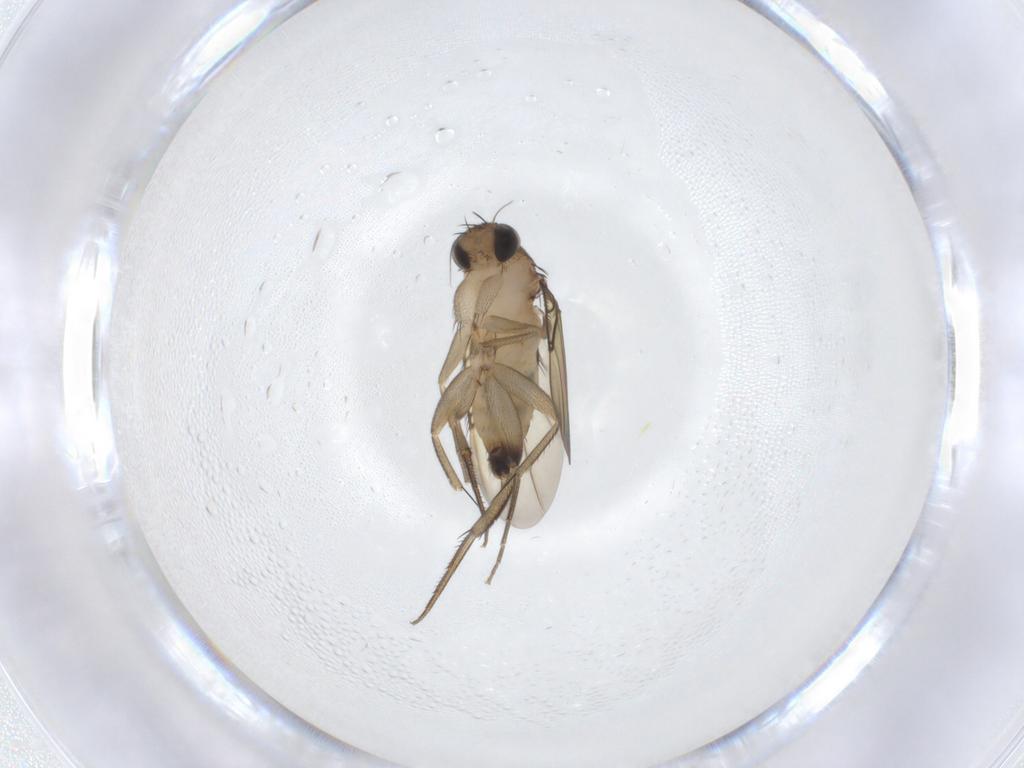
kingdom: Animalia
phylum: Arthropoda
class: Insecta
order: Diptera
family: Phoridae
